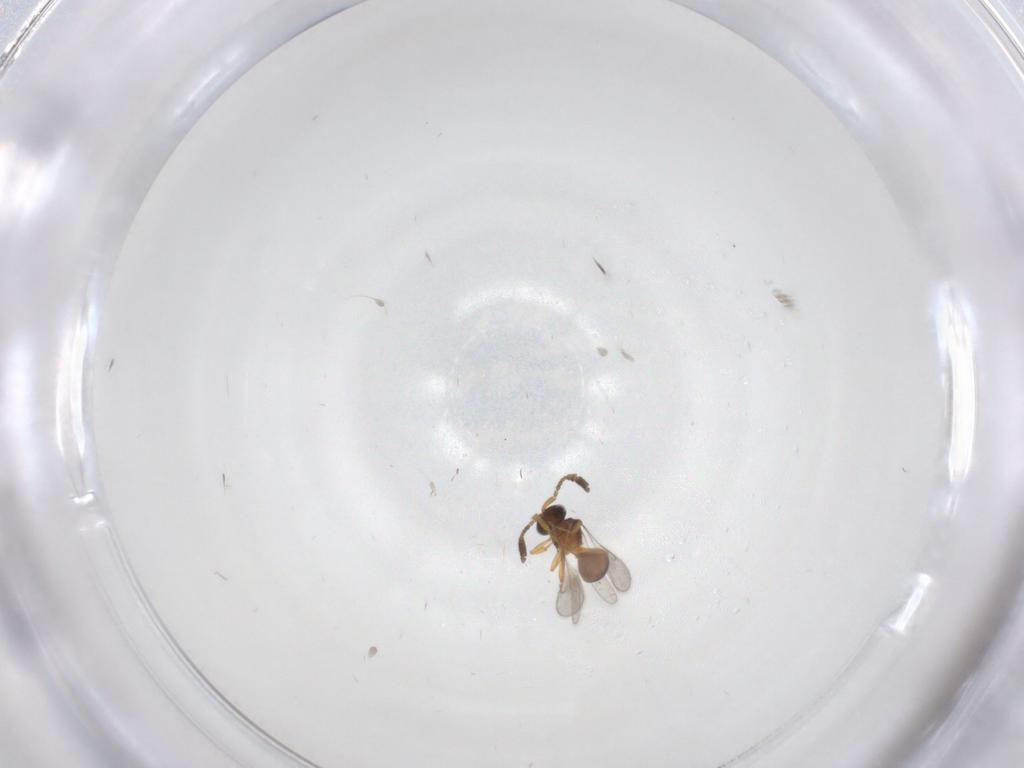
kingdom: Animalia
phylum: Arthropoda
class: Insecta
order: Hymenoptera
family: Scelionidae
